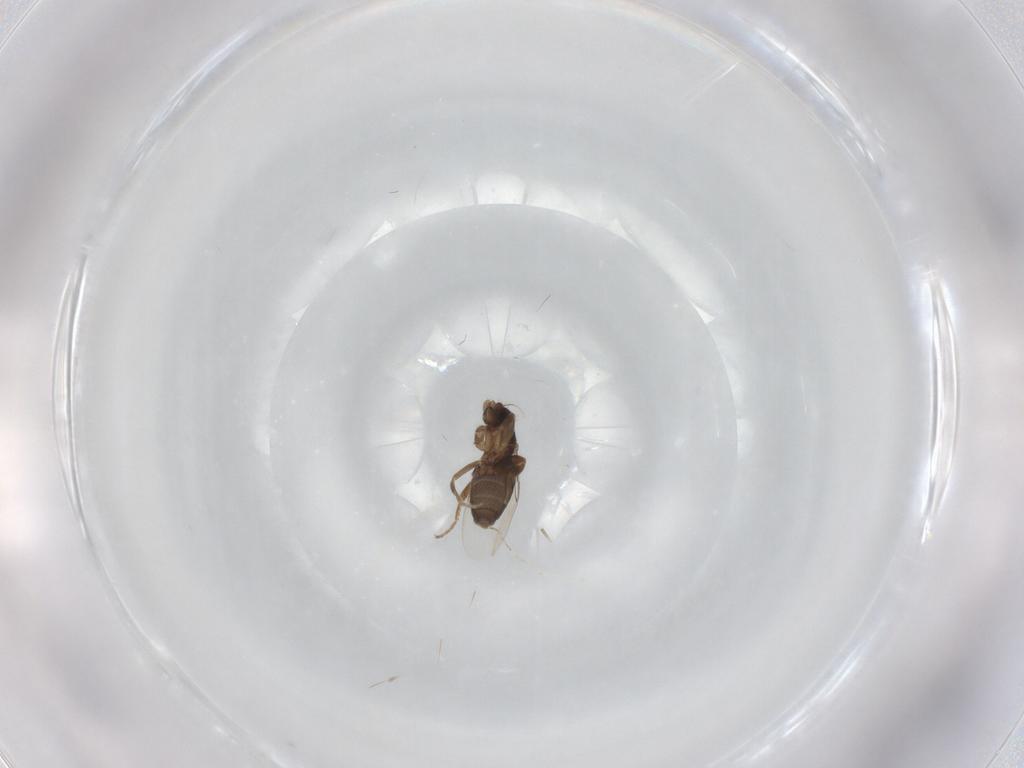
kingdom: Animalia
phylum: Arthropoda
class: Insecta
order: Diptera
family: Phoridae
